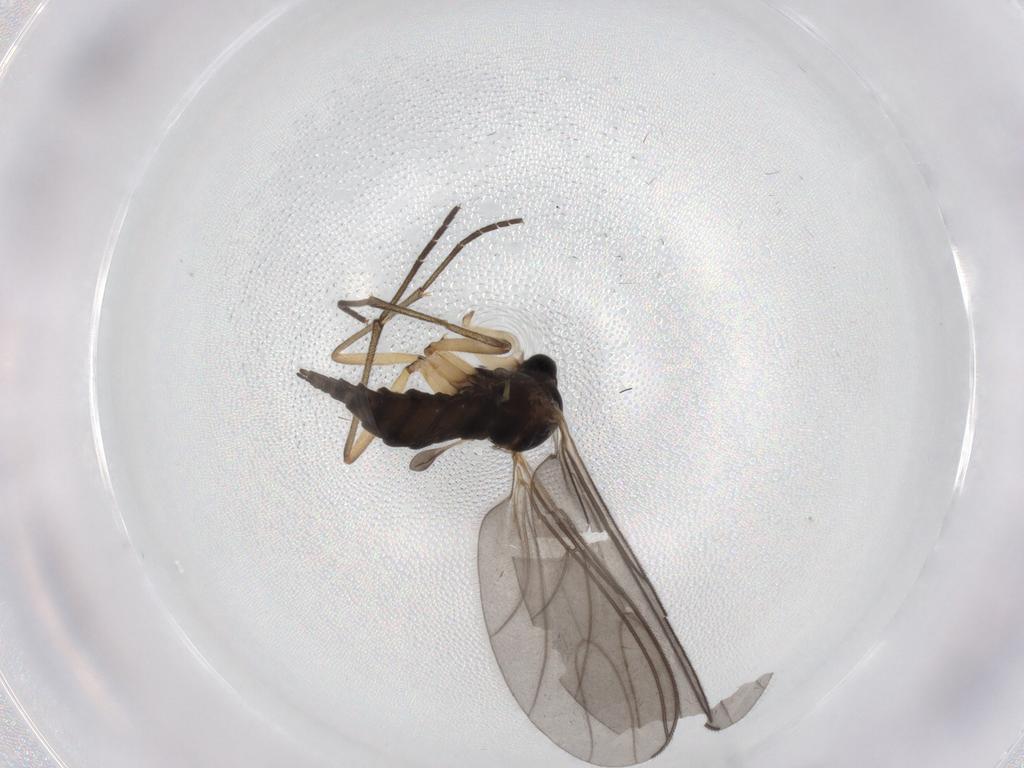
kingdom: Animalia
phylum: Arthropoda
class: Insecta
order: Diptera
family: Sciaridae
